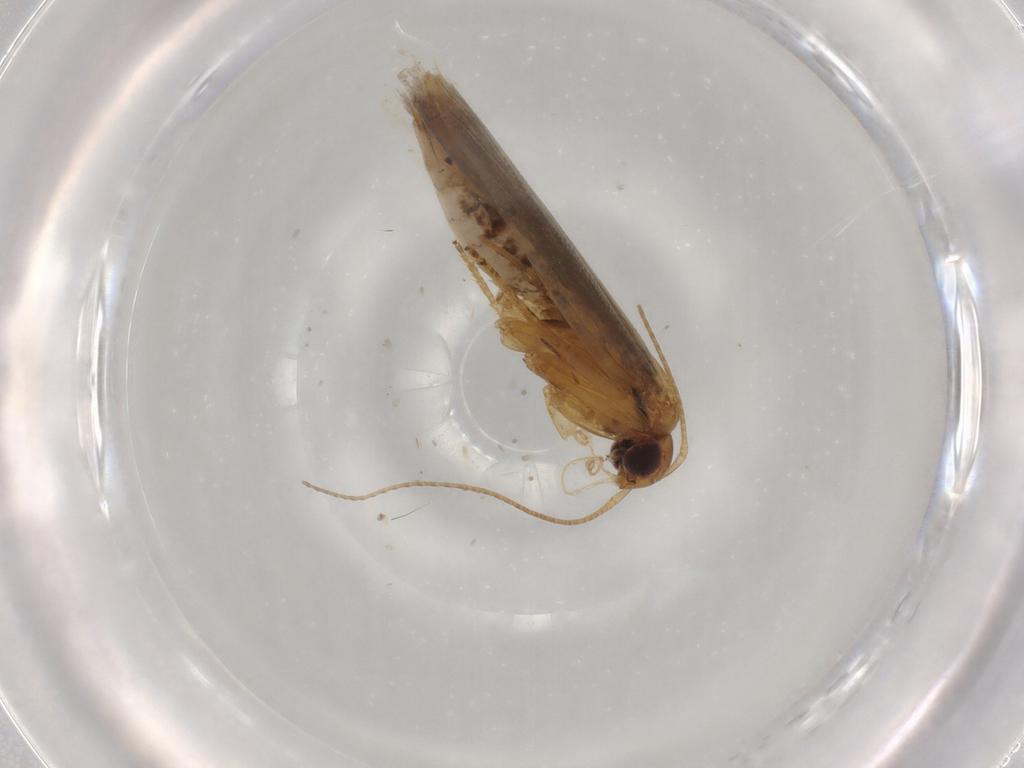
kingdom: Animalia
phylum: Arthropoda
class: Insecta
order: Lepidoptera
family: Gelechiidae
